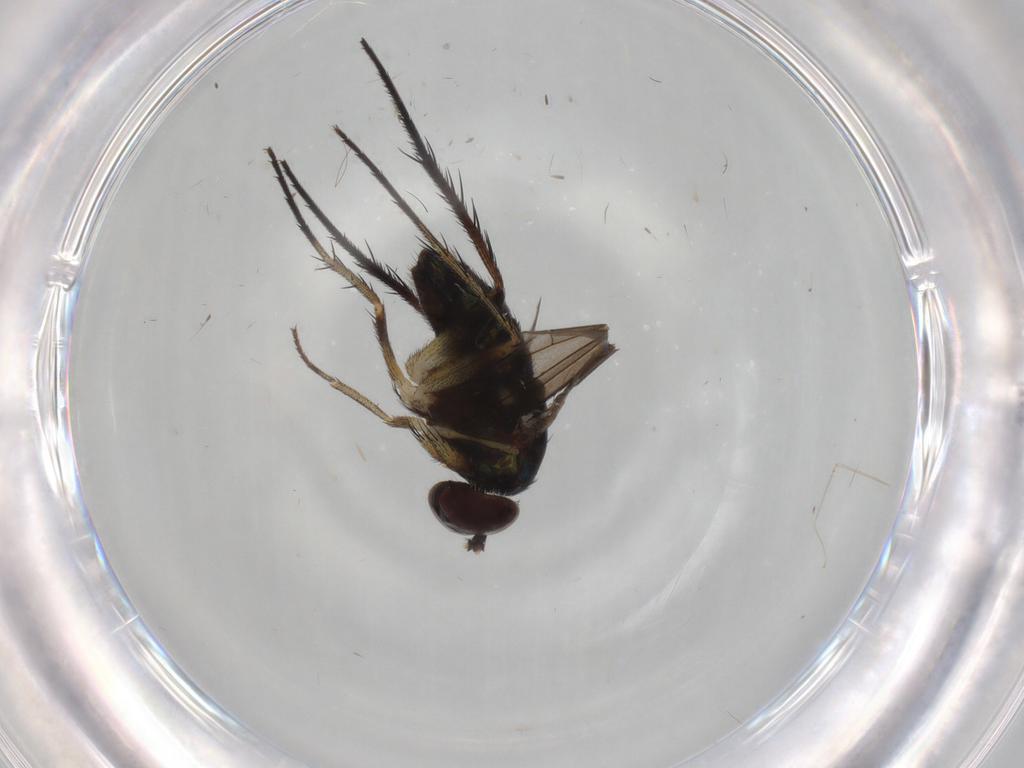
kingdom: Animalia
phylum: Arthropoda
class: Insecta
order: Diptera
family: Dolichopodidae
